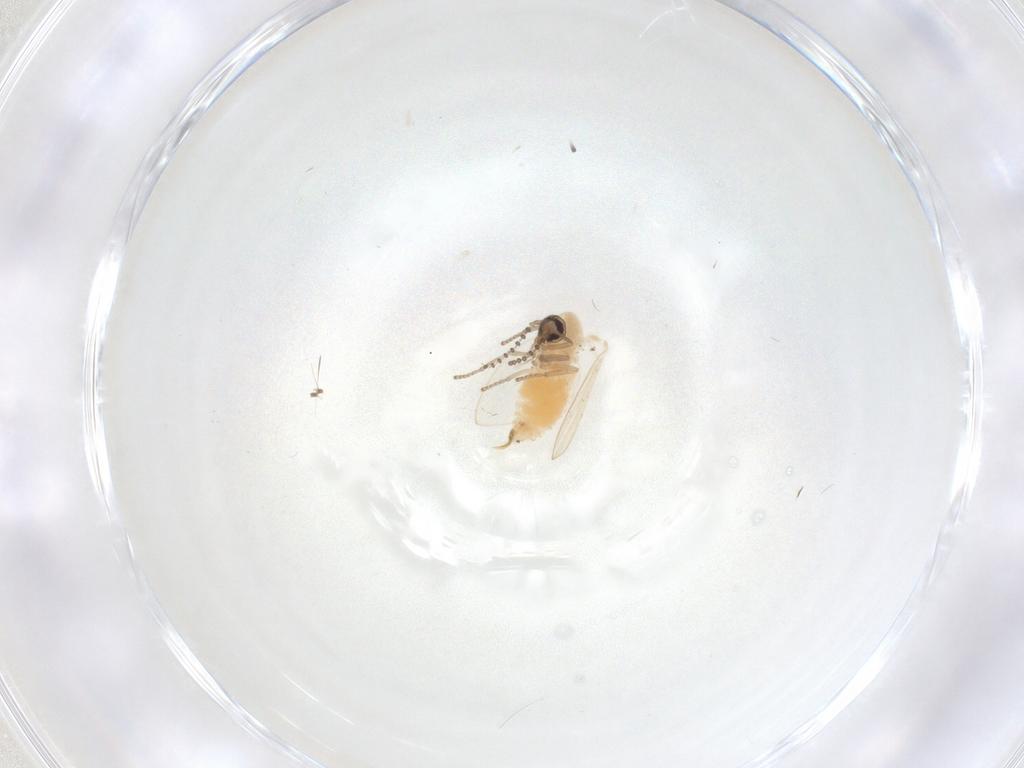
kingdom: Animalia
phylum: Arthropoda
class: Insecta
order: Diptera
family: Psychodidae
